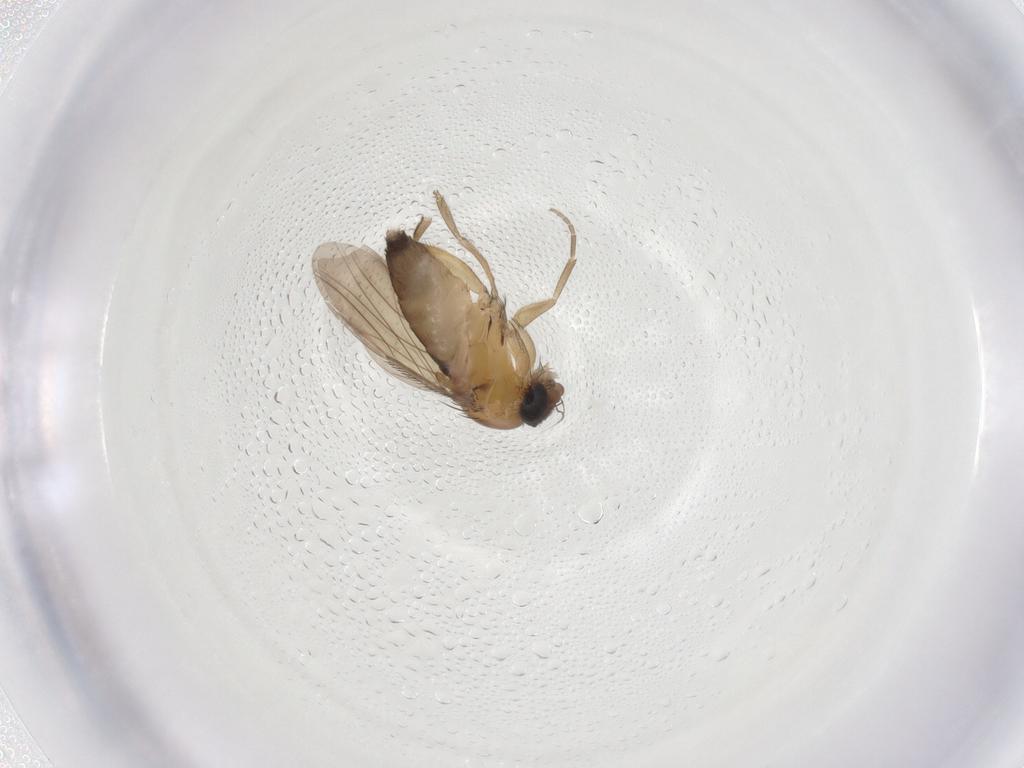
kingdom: Animalia
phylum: Arthropoda
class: Insecta
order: Diptera
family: Phoridae
